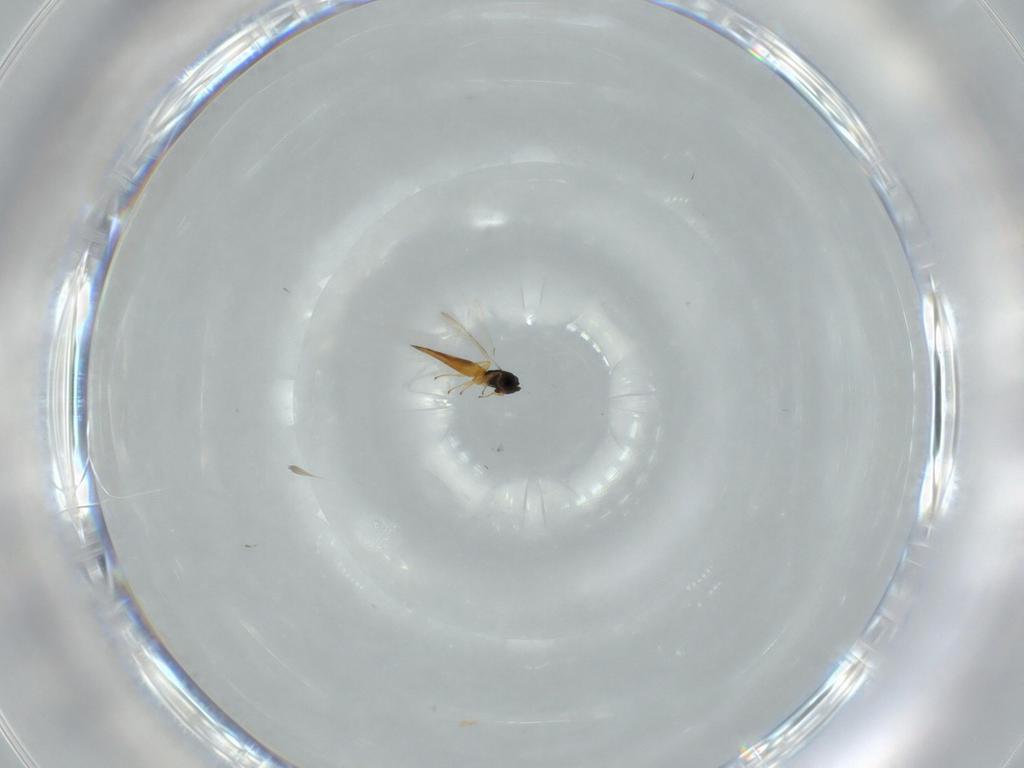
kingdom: Animalia
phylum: Arthropoda
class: Insecta
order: Hymenoptera
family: Scelionidae
